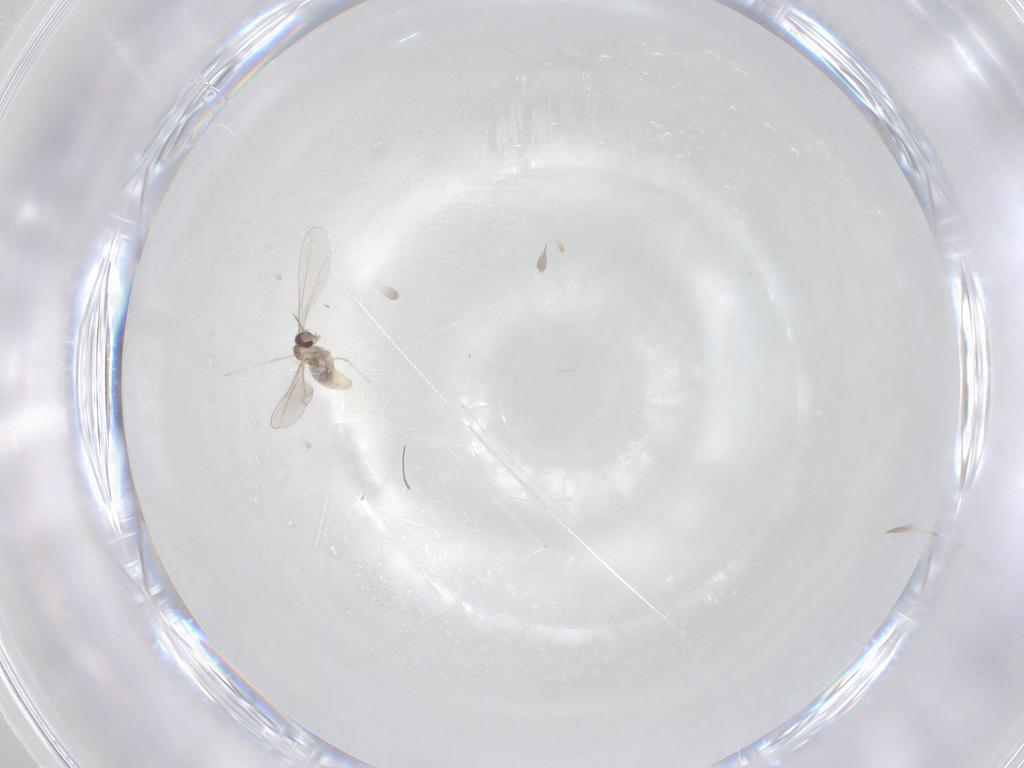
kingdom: Animalia
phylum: Arthropoda
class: Insecta
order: Diptera
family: Cecidomyiidae
